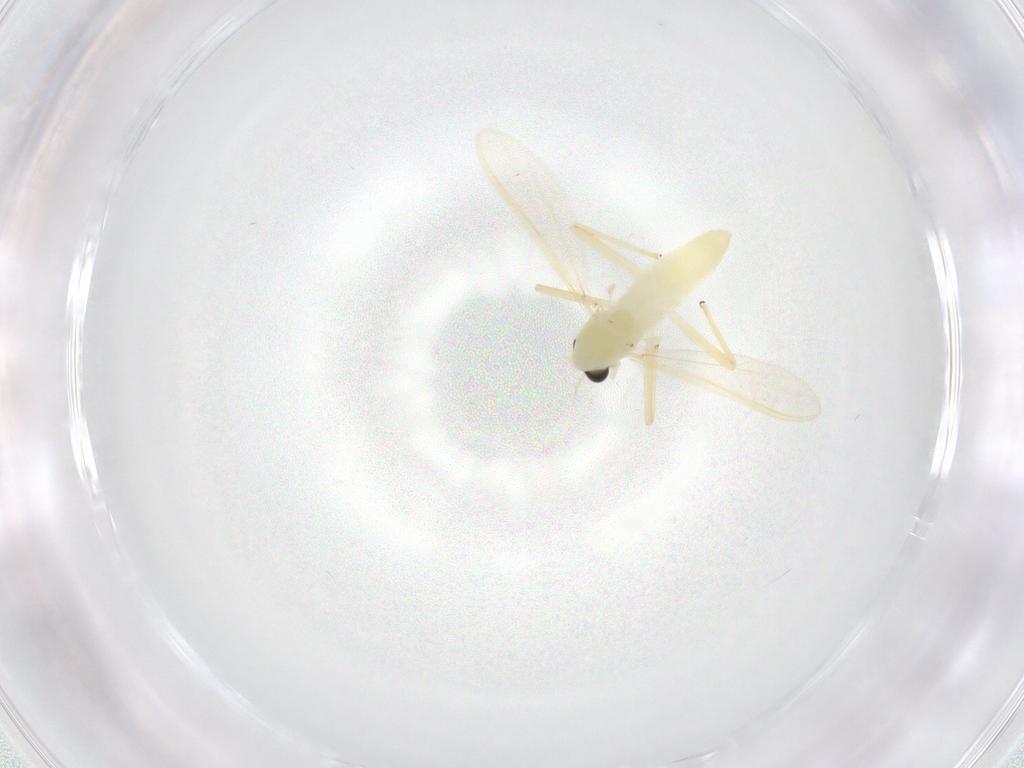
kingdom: Animalia
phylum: Arthropoda
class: Insecta
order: Diptera
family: Chironomidae
